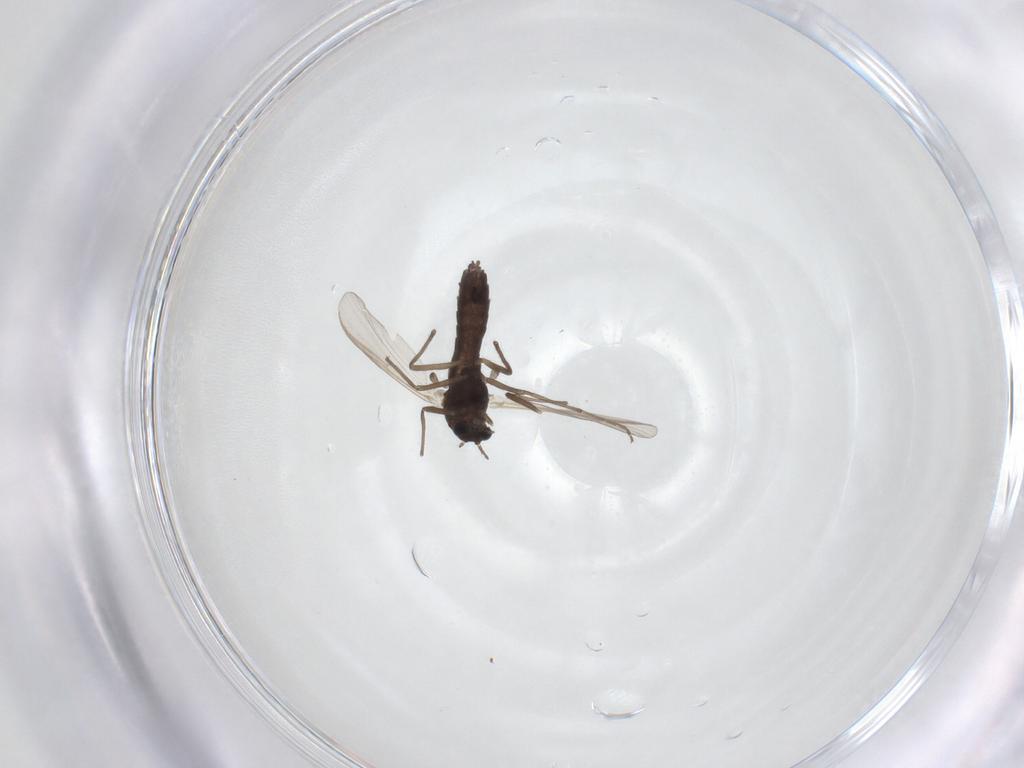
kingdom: Animalia
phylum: Arthropoda
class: Insecta
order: Diptera
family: Chironomidae
